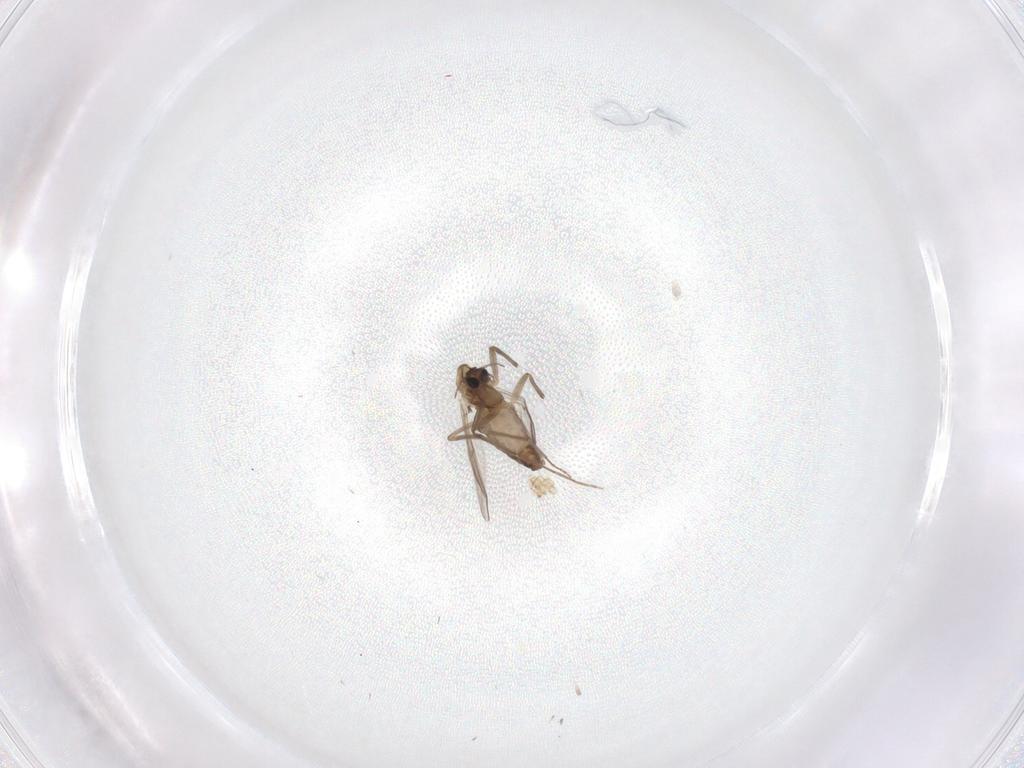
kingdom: Animalia
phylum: Arthropoda
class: Insecta
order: Diptera
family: Chironomidae
